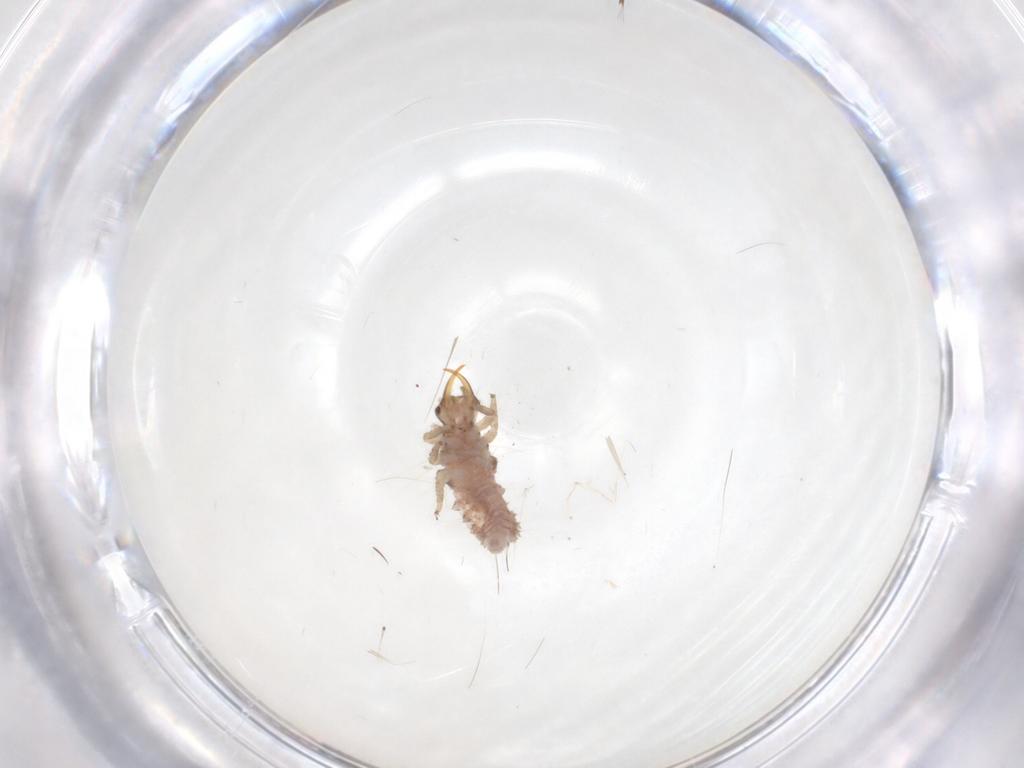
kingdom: Animalia
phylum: Arthropoda
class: Insecta
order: Neuroptera
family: Chrysopidae
